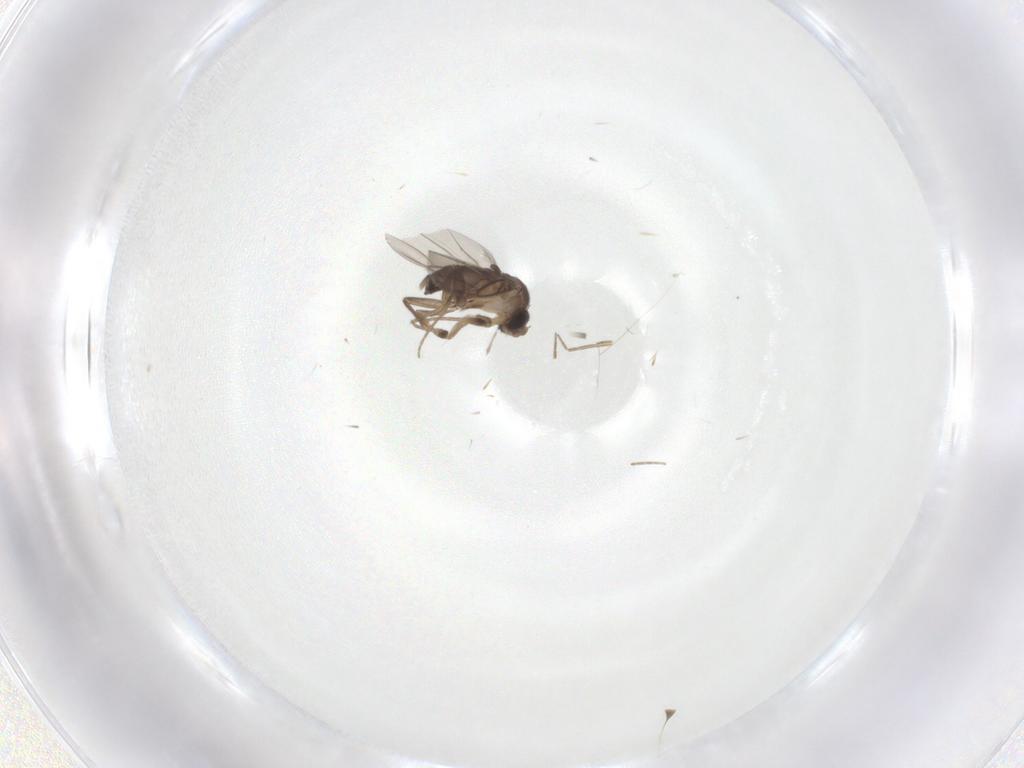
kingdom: Animalia
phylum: Arthropoda
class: Insecta
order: Diptera
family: Phoridae
